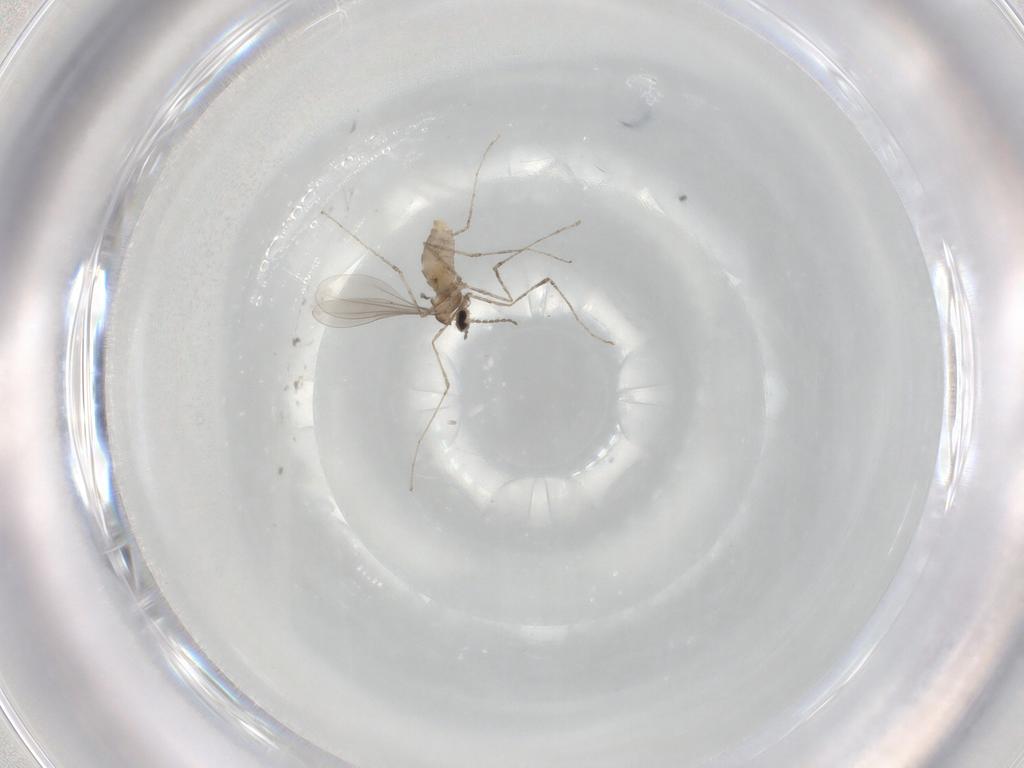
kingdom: Animalia
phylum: Arthropoda
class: Insecta
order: Diptera
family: Cecidomyiidae
